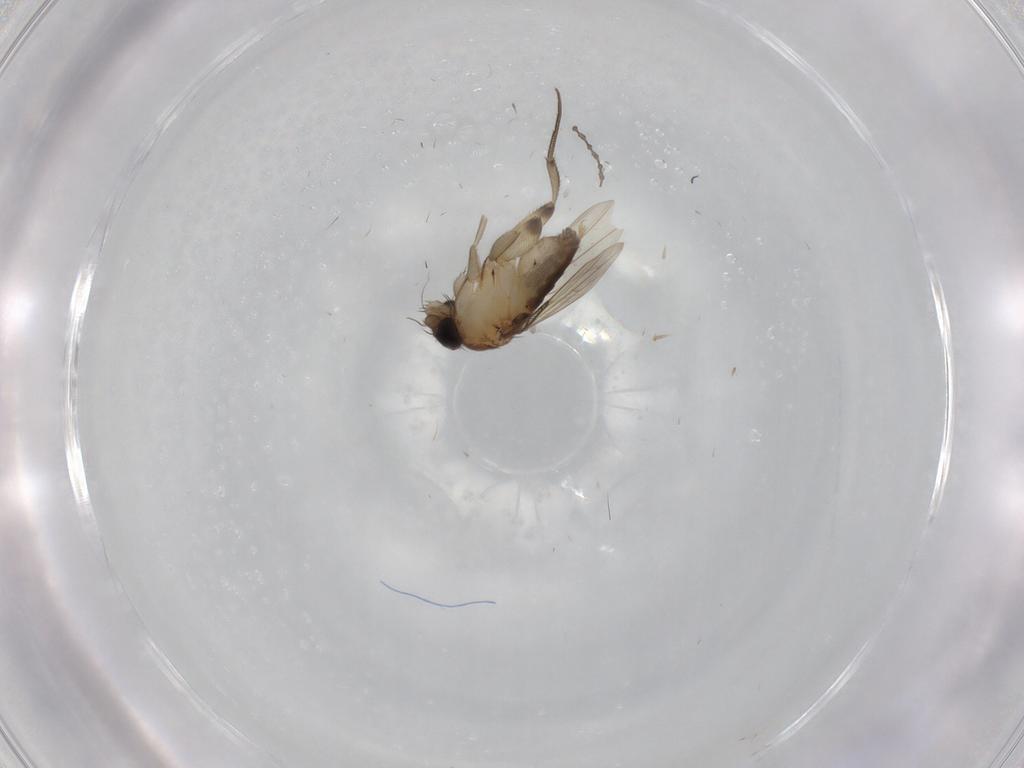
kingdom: Animalia
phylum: Arthropoda
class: Insecta
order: Diptera
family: Phoridae
